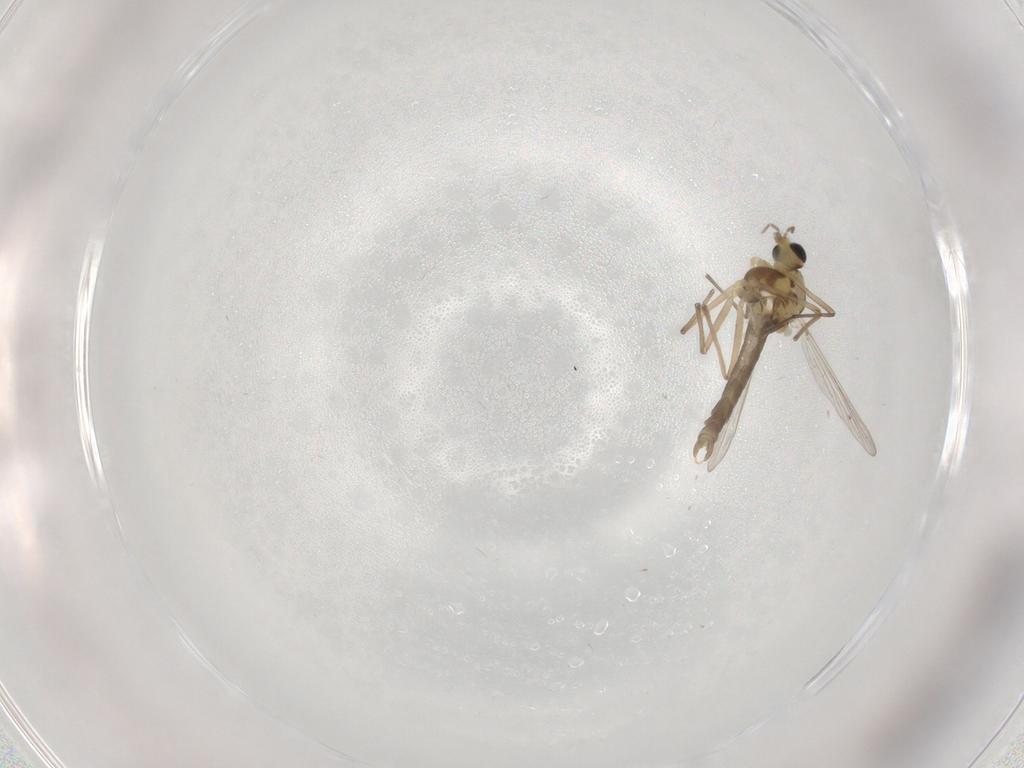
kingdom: Animalia
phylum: Arthropoda
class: Insecta
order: Diptera
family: Chironomidae
